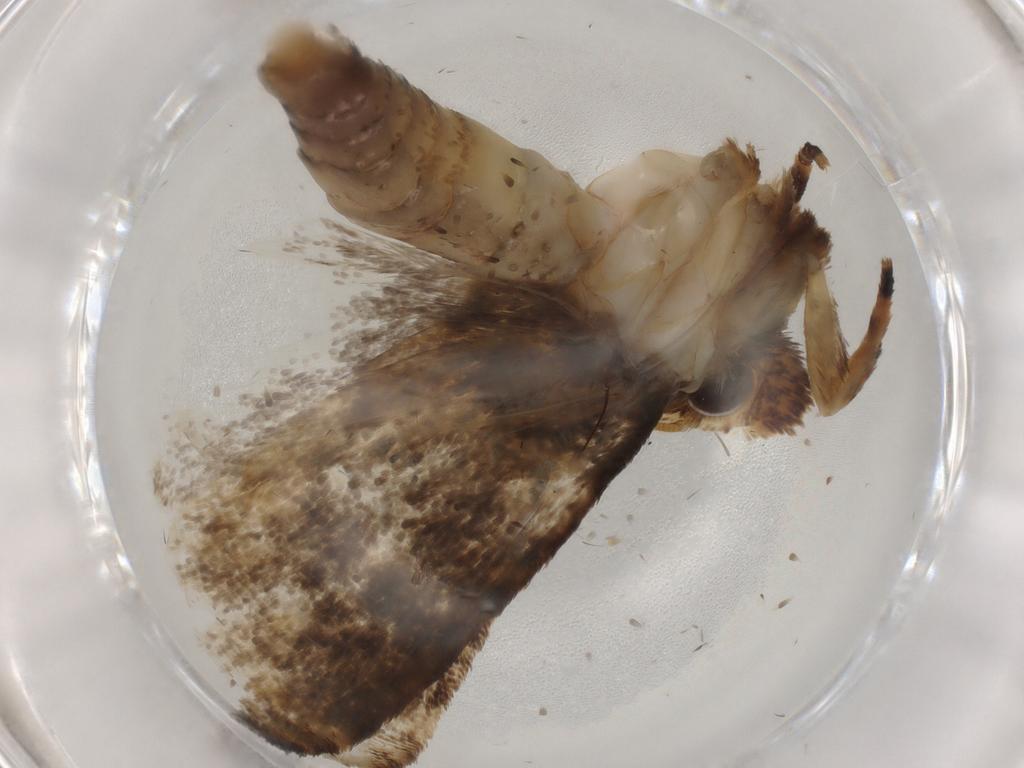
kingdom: Animalia
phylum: Arthropoda
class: Insecta
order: Lepidoptera
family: Tineidae
